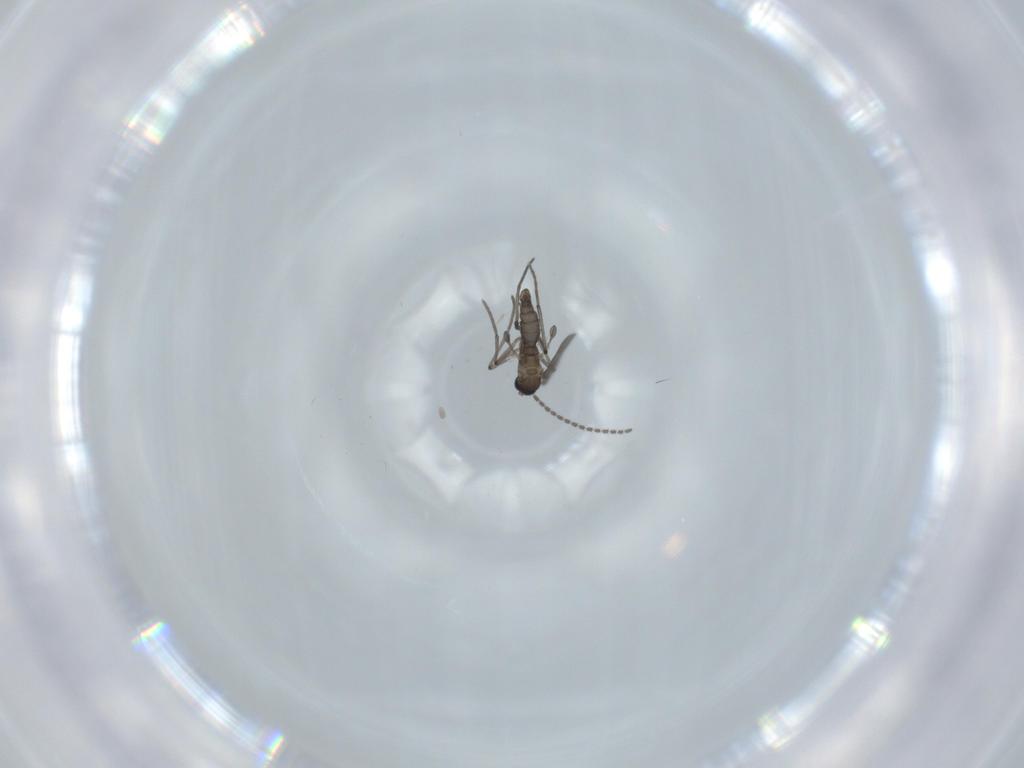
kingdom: Animalia
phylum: Arthropoda
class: Insecta
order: Diptera
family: Sciaridae
